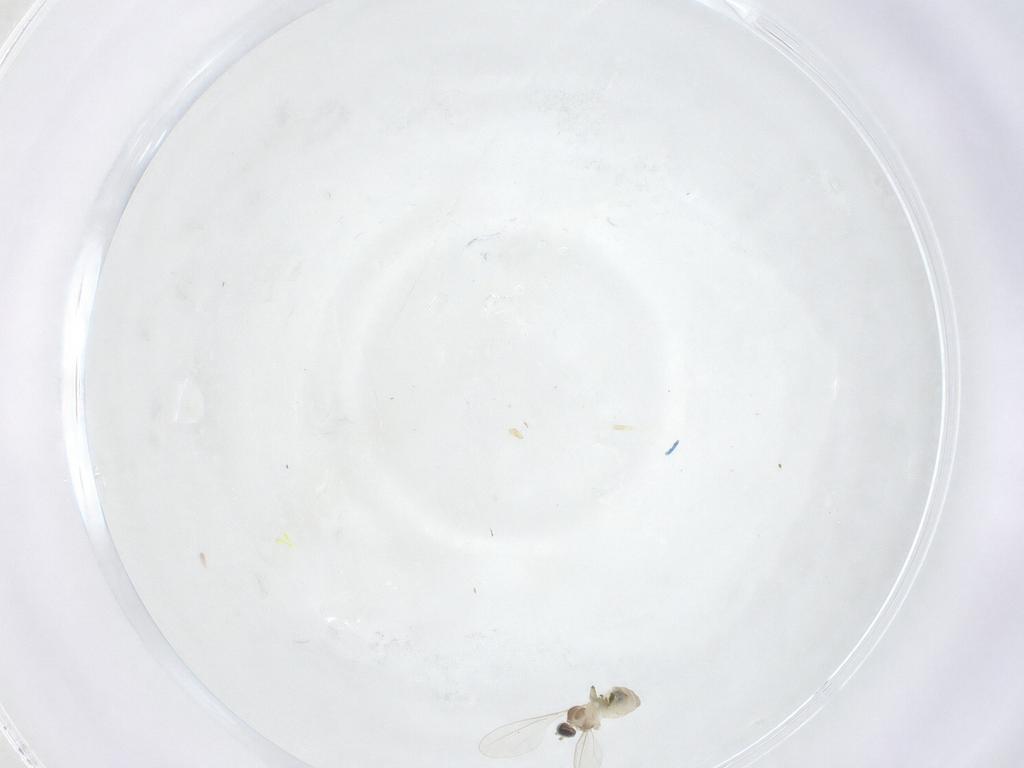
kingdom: Animalia
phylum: Arthropoda
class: Insecta
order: Diptera
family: Cecidomyiidae
